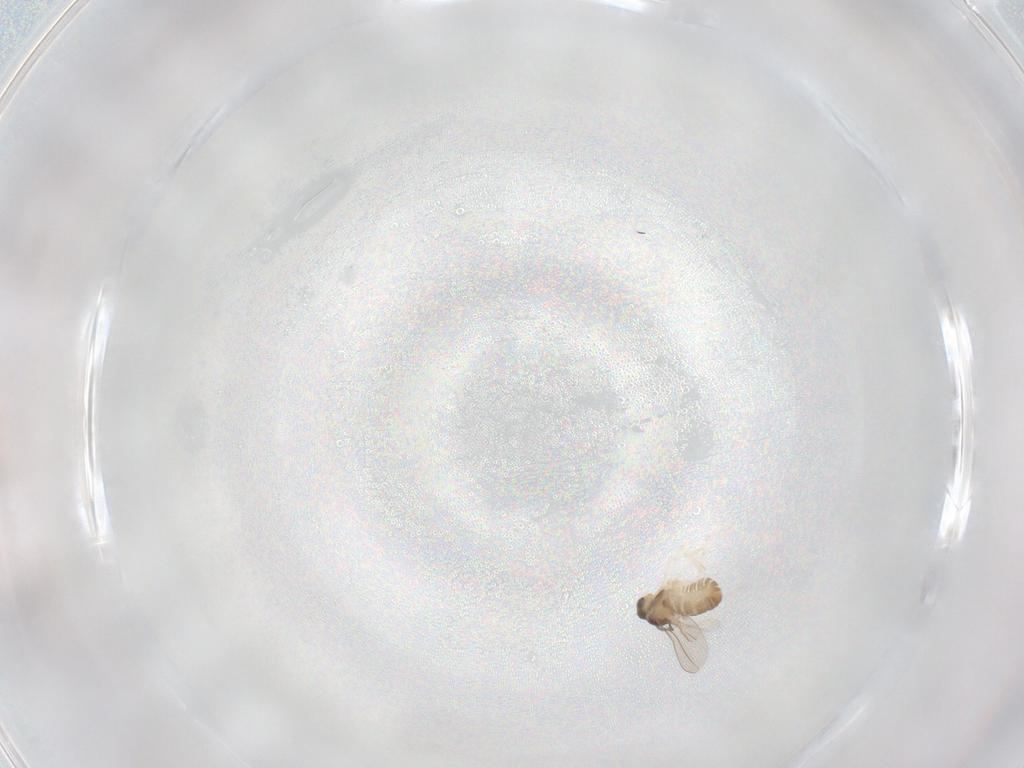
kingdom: Animalia
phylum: Arthropoda
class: Insecta
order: Diptera
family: Cecidomyiidae
